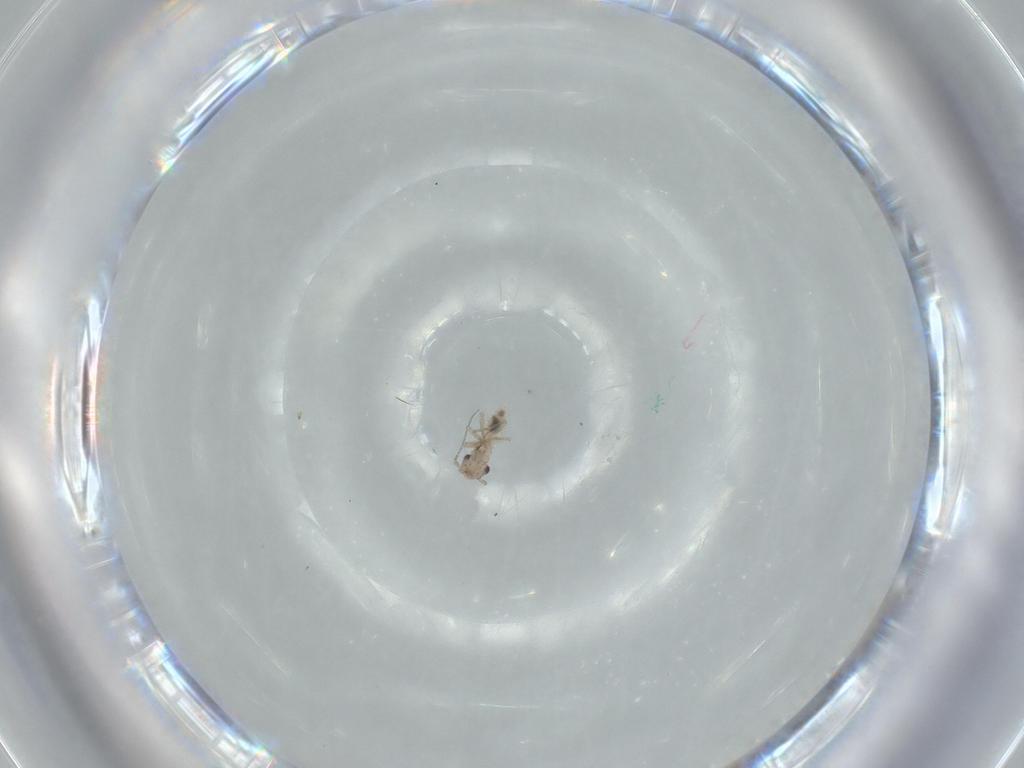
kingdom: Animalia
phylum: Arthropoda
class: Insecta
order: Psocodea
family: Lepidopsocidae
